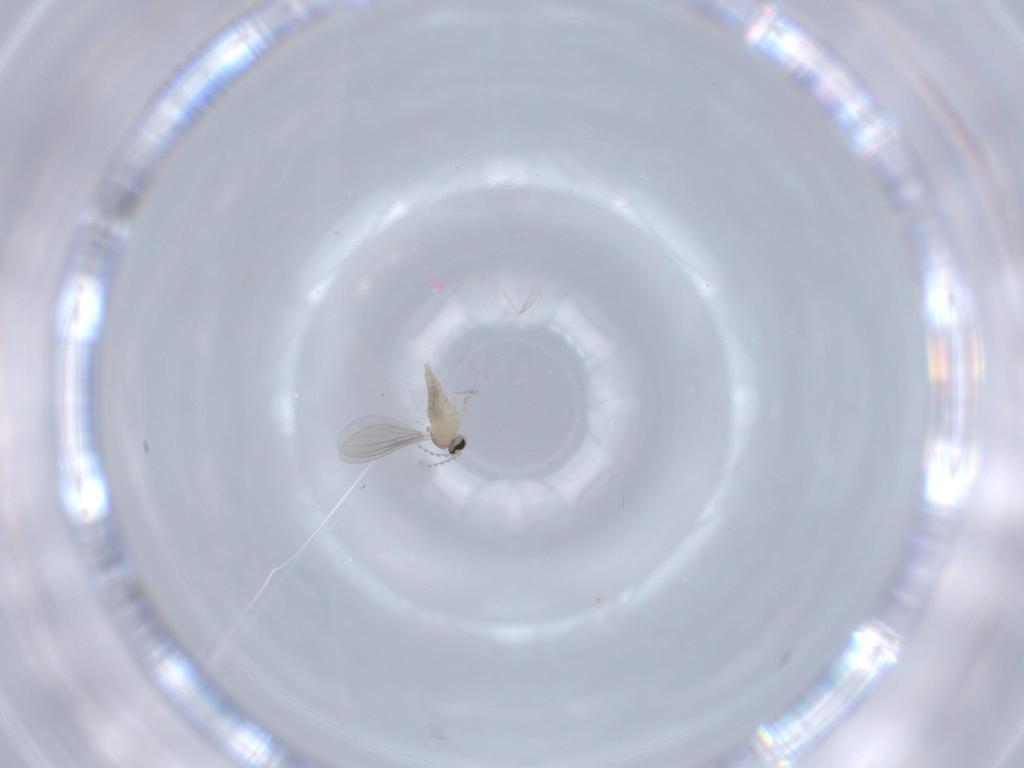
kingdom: Animalia
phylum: Arthropoda
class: Insecta
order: Diptera
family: Cecidomyiidae
